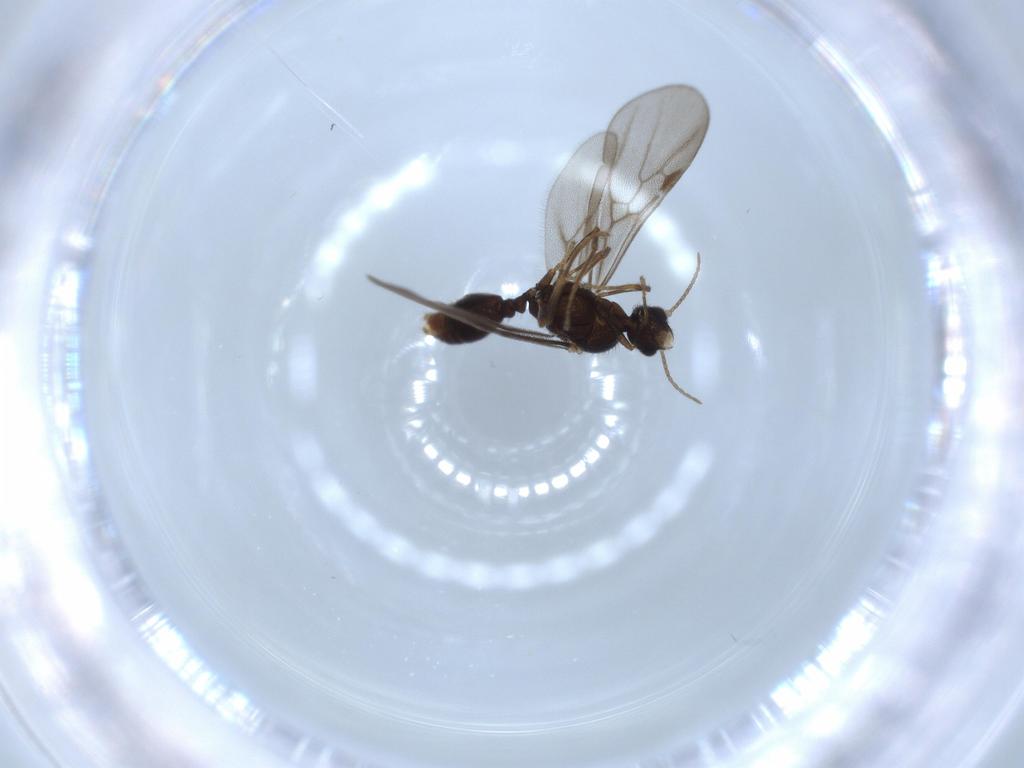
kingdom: Animalia
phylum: Arthropoda
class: Insecta
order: Hymenoptera
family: Formicidae
